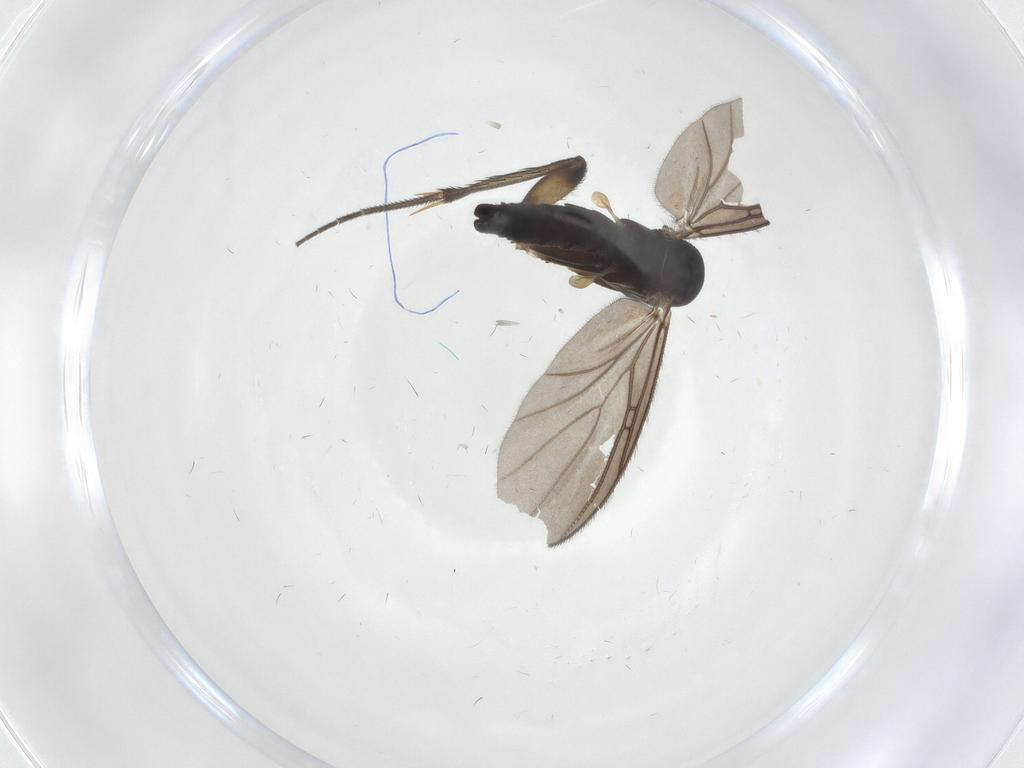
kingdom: Animalia
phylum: Arthropoda
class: Insecta
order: Diptera
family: Mycetophilidae
